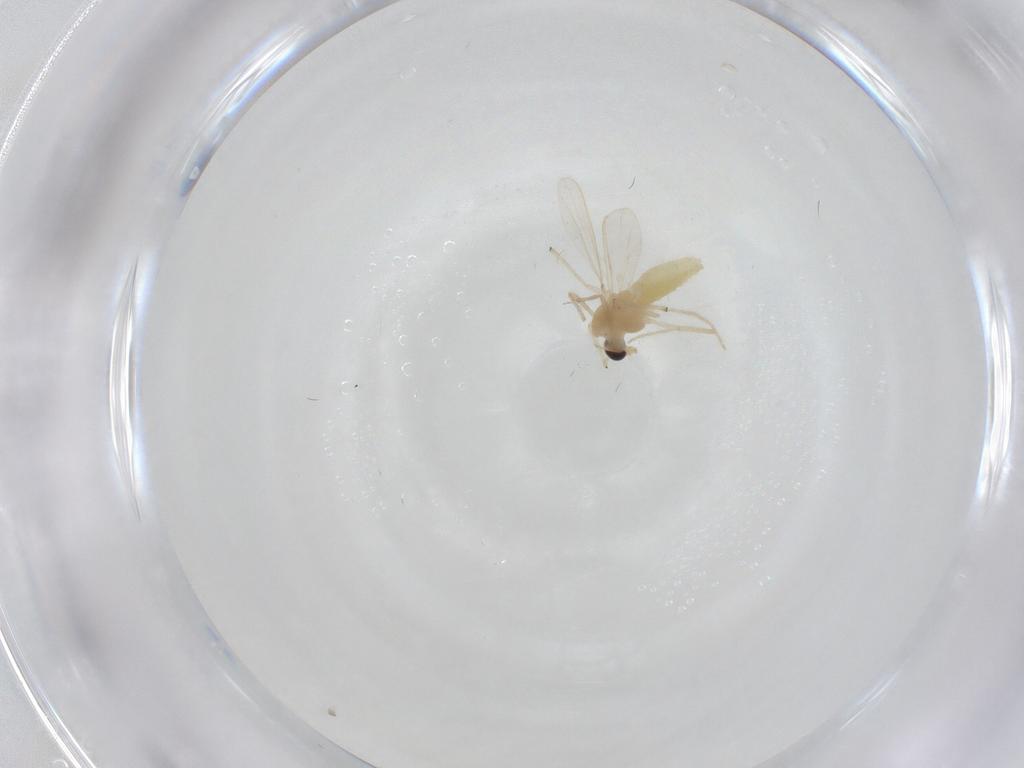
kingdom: Animalia
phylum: Arthropoda
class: Insecta
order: Diptera
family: Chironomidae
